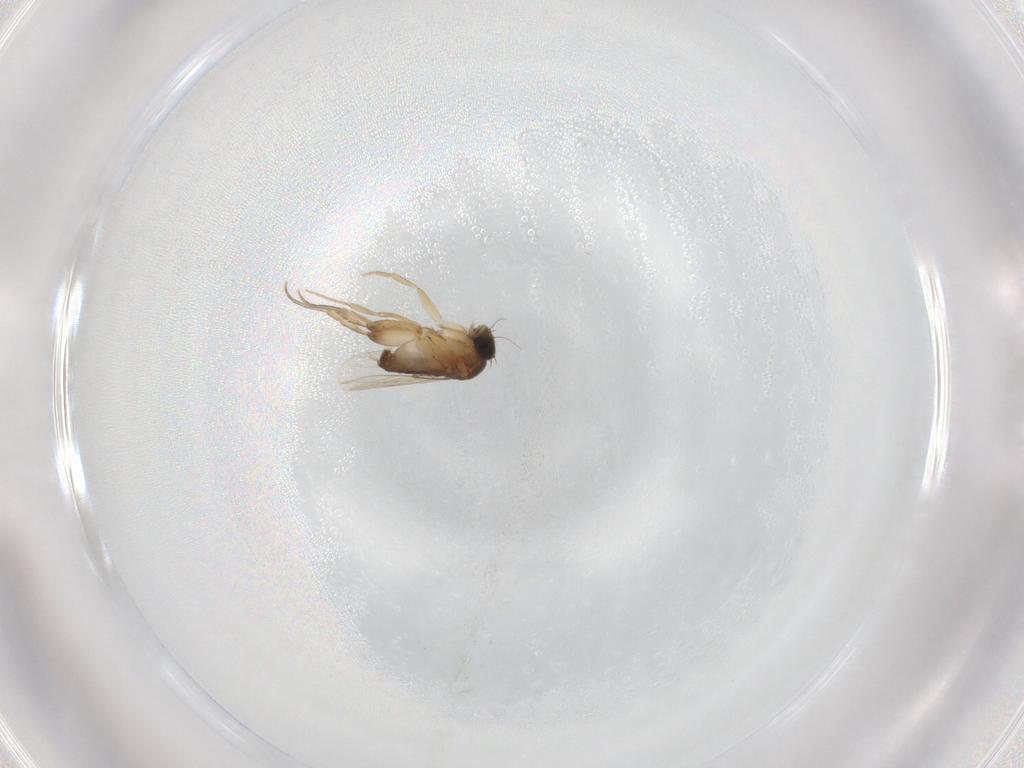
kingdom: Animalia
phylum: Arthropoda
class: Insecta
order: Diptera
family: Phoridae
